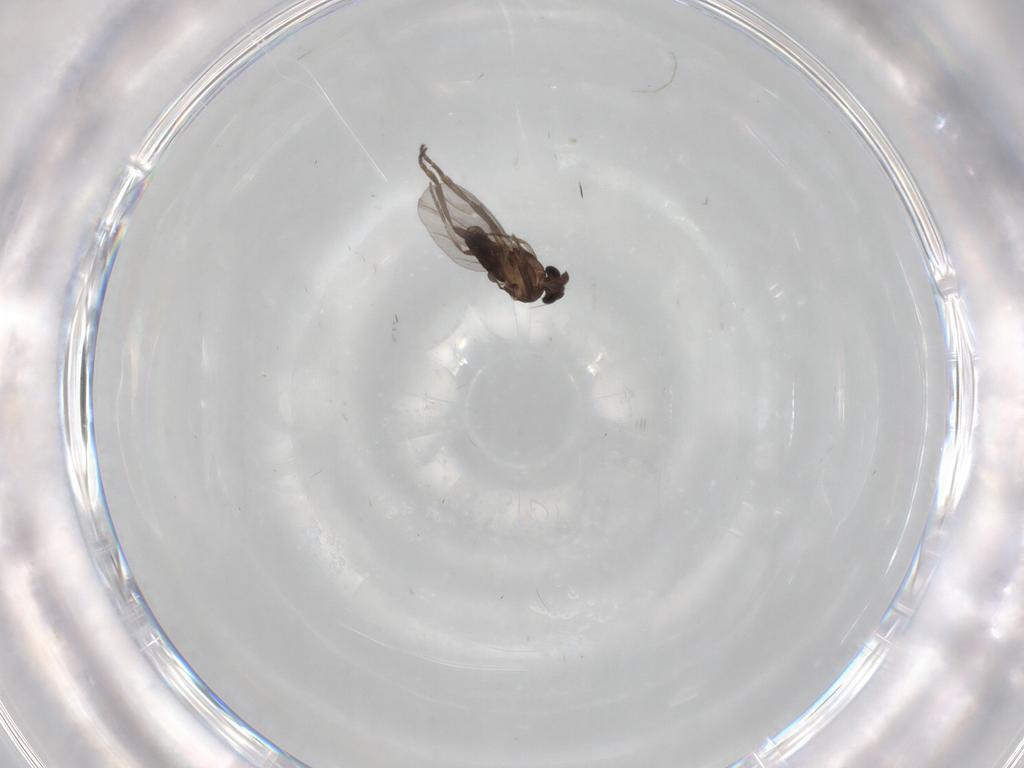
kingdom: Animalia
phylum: Arthropoda
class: Insecta
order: Diptera
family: Phoridae
